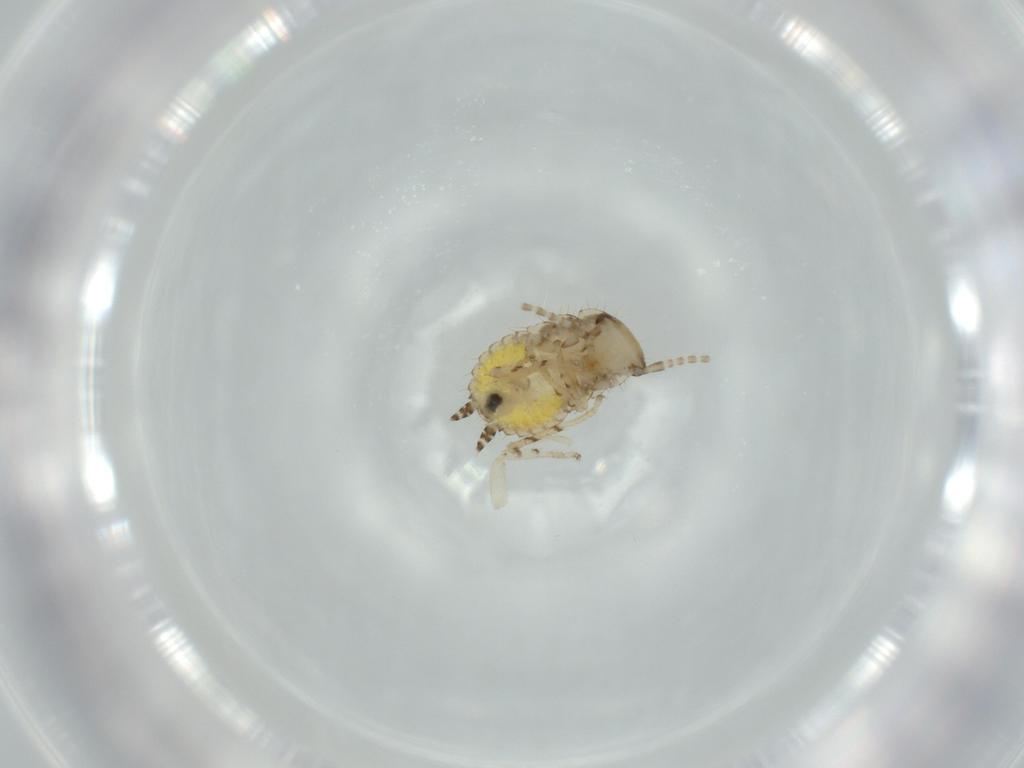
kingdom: Animalia
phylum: Arthropoda
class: Insecta
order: Blattodea
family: Ectobiidae
